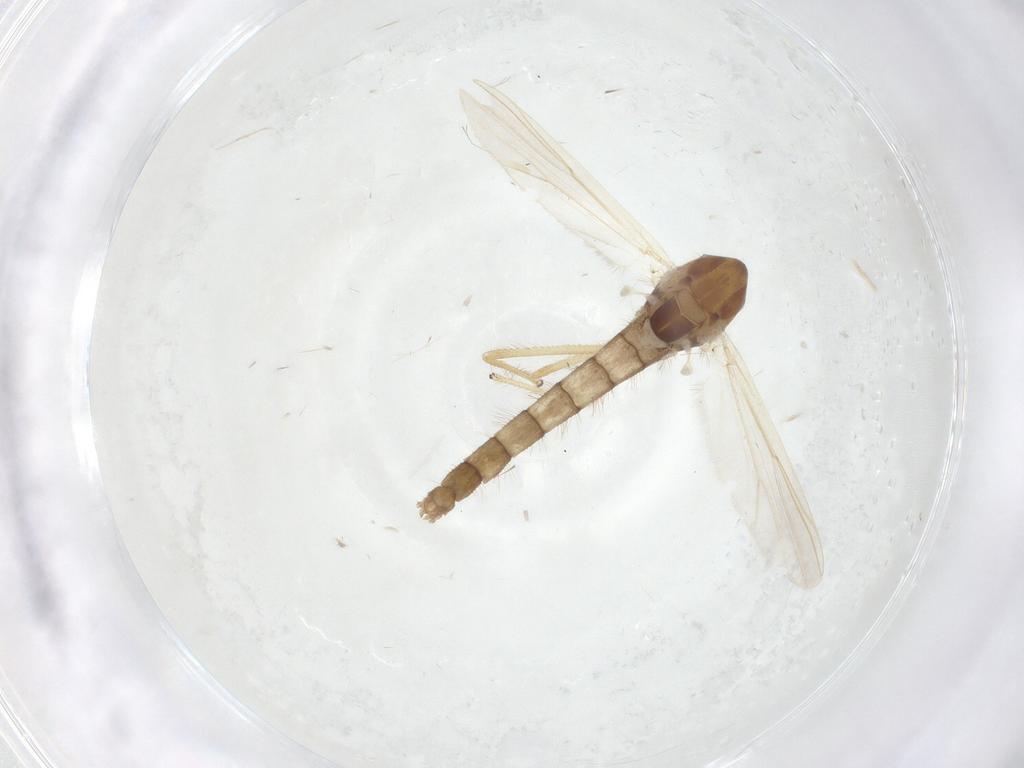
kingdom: Animalia
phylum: Arthropoda
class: Insecta
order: Diptera
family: Chironomidae
